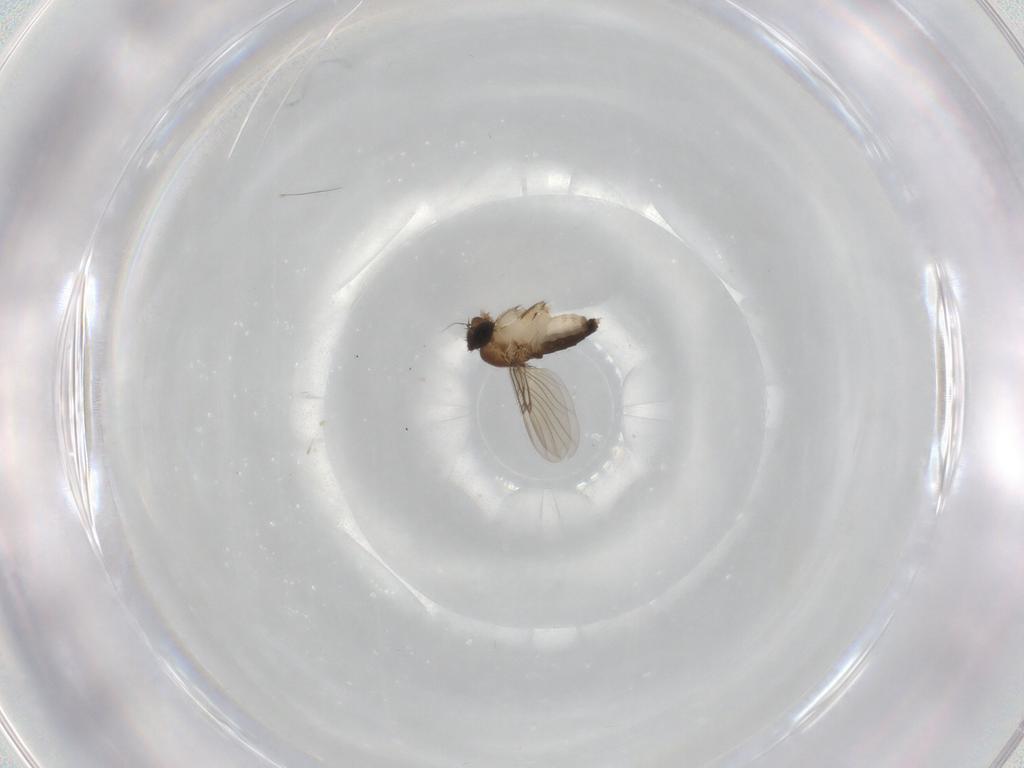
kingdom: Animalia
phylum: Arthropoda
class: Insecta
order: Diptera
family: Phoridae
